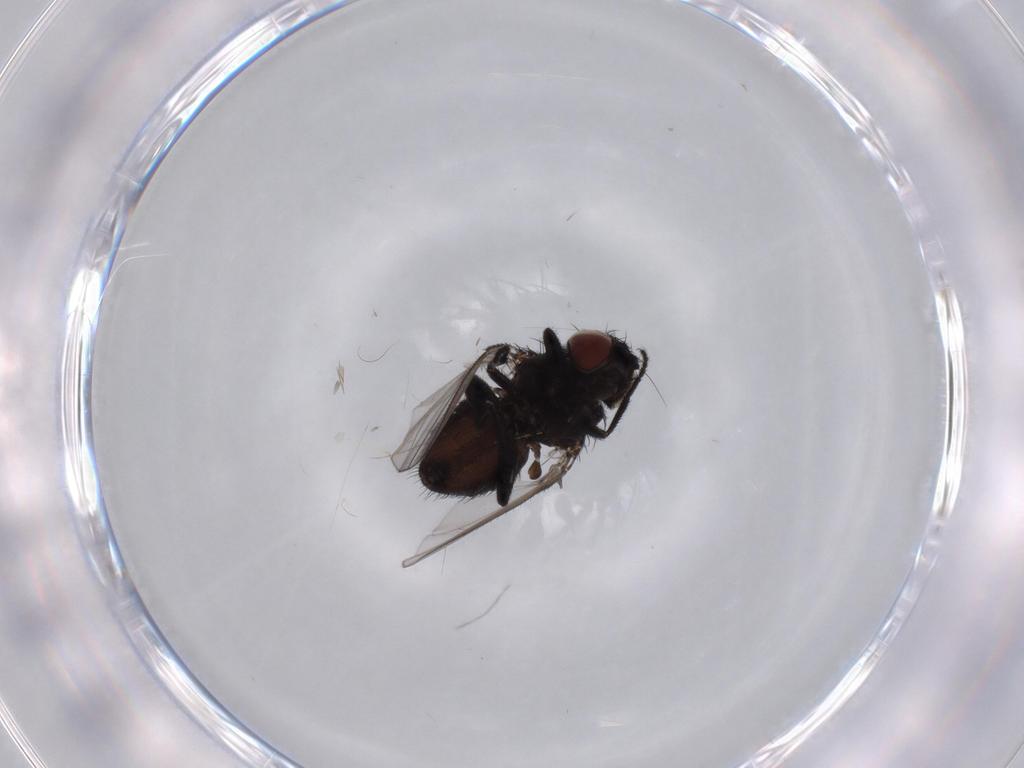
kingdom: Animalia
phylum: Arthropoda
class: Insecta
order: Diptera
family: Milichiidae
